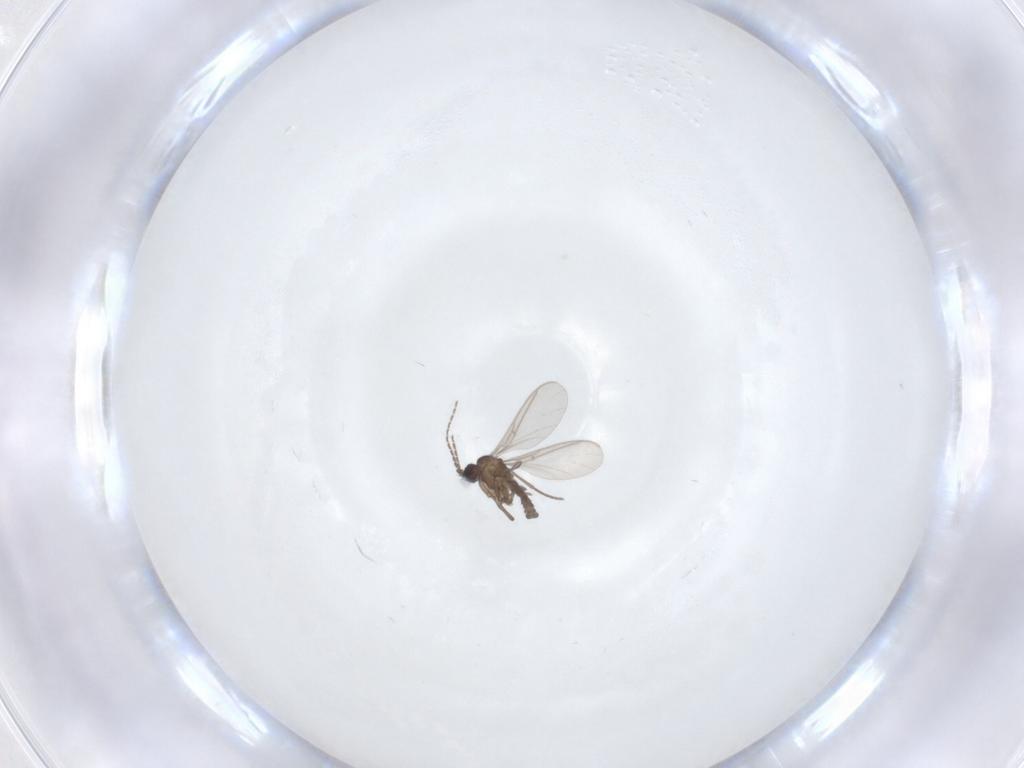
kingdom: Animalia
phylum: Arthropoda
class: Insecta
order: Diptera
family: Sciaridae
